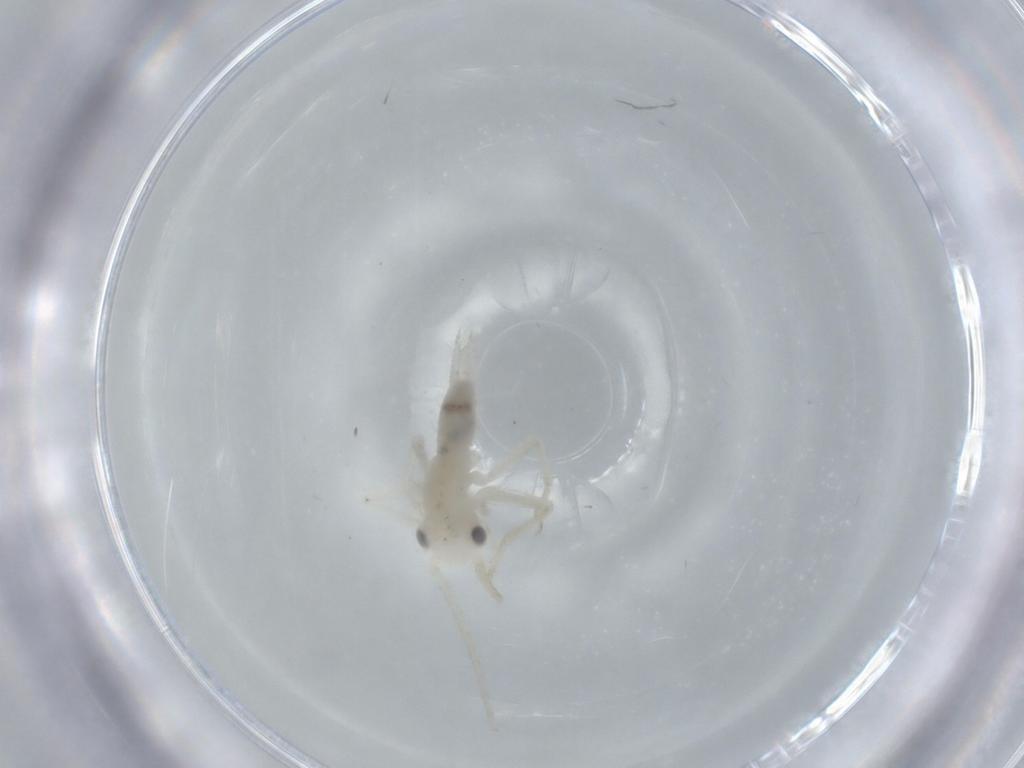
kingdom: Animalia
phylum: Arthropoda
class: Insecta
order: Orthoptera
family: Trigonidiidae
